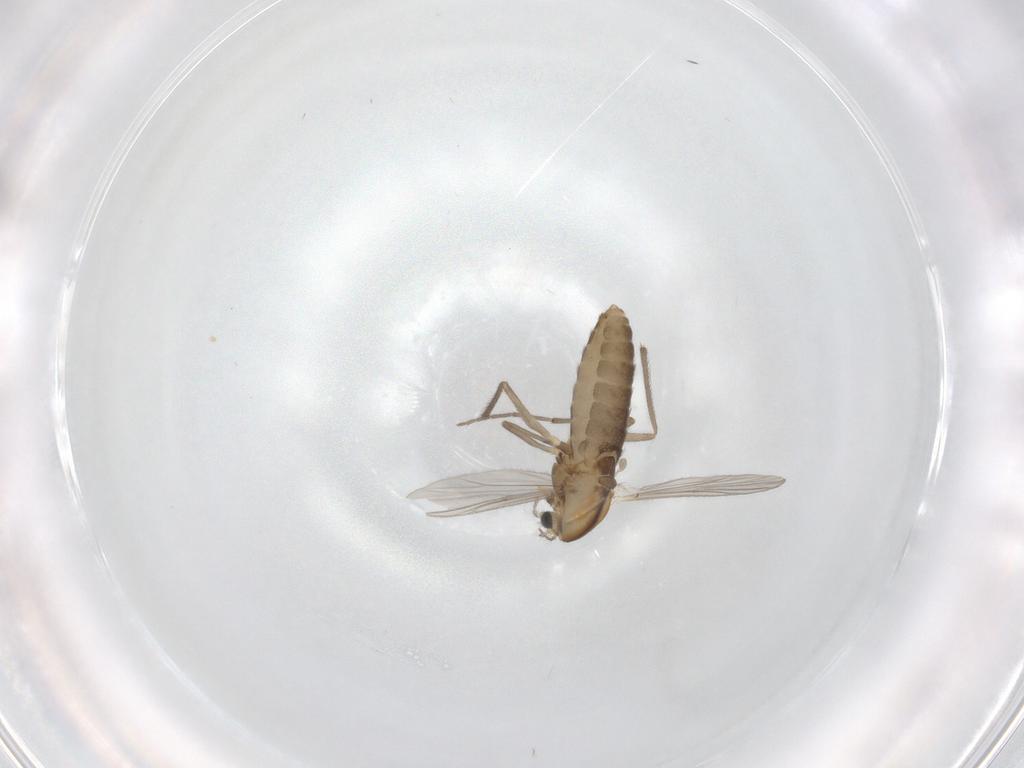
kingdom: Animalia
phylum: Arthropoda
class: Insecta
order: Diptera
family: Chironomidae
